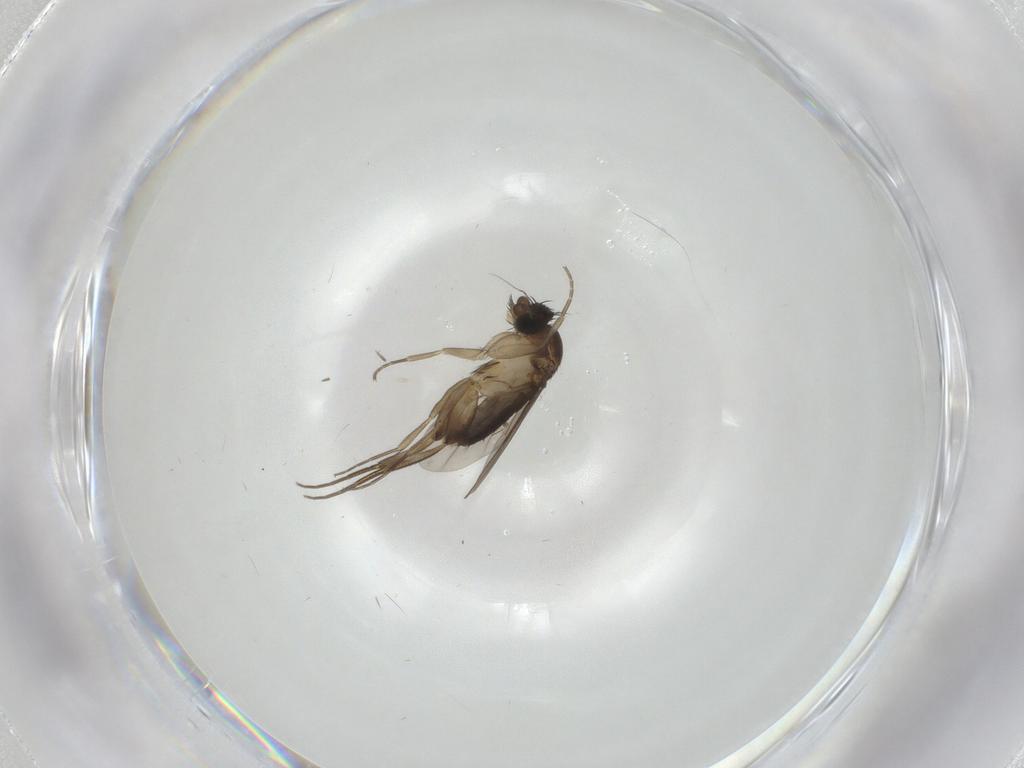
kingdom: Animalia
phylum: Arthropoda
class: Insecta
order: Diptera
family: Phoridae
